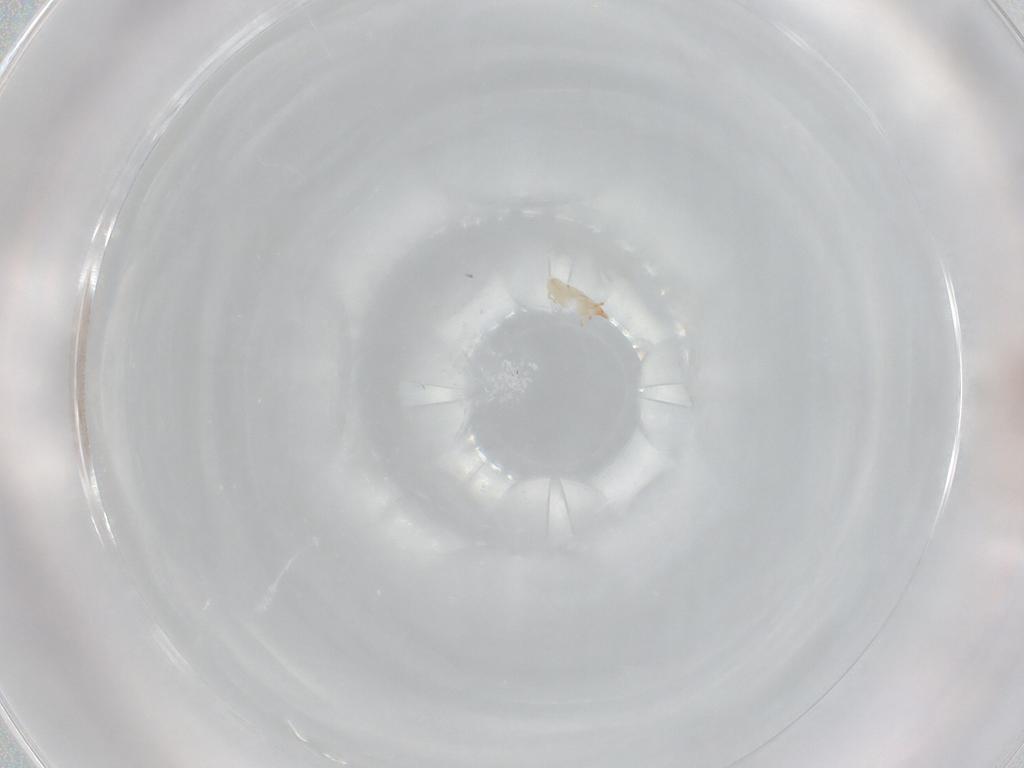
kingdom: Animalia
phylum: Arthropoda
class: Arachnida
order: Sarcoptiformes
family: Mochlozetidae
